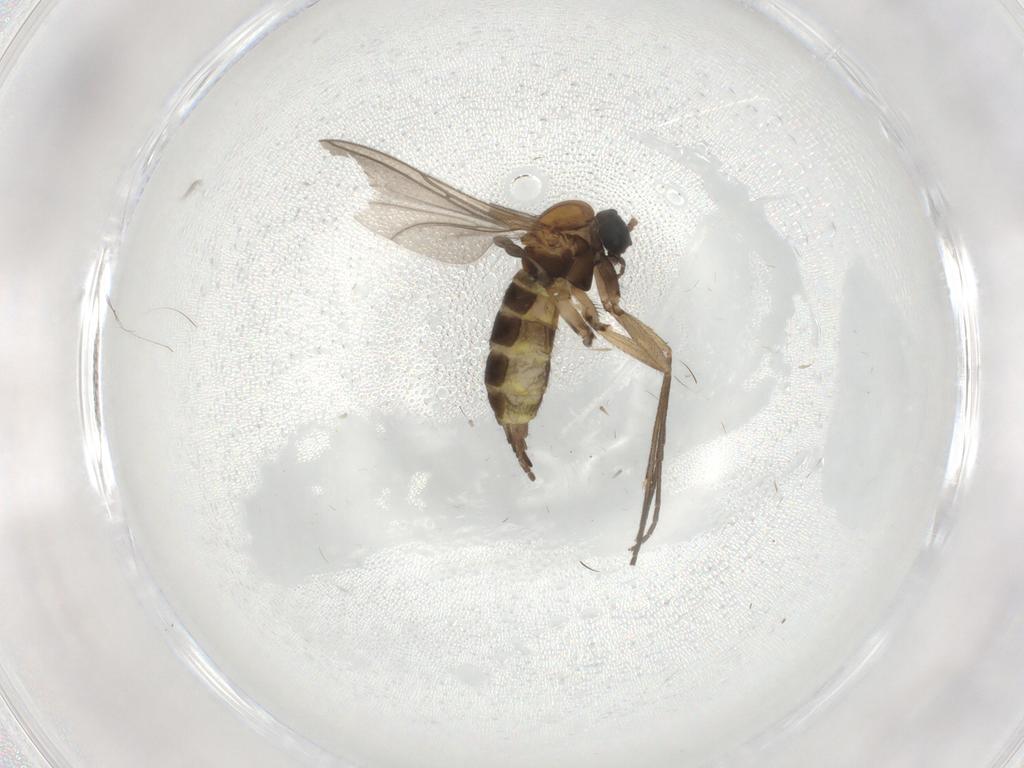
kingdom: Animalia
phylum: Arthropoda
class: Insecta
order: Diptera
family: Sciaridae
